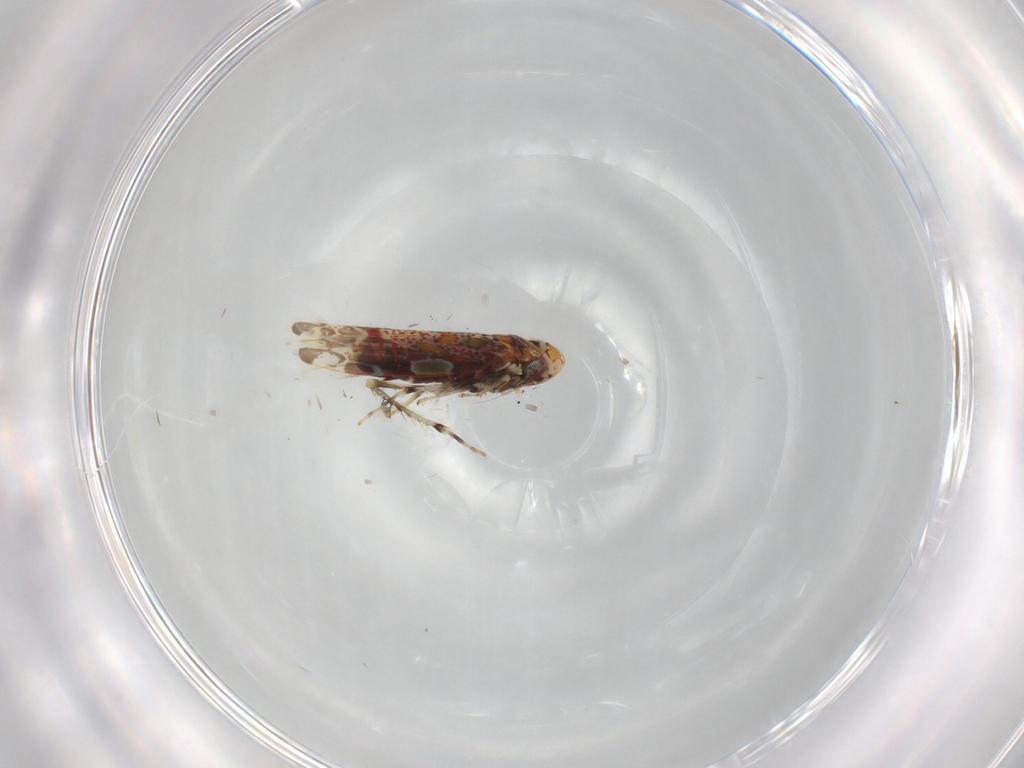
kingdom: Animalia
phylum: Arthropoda
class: Insecta
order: Hemiptera
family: Cicadellidae
